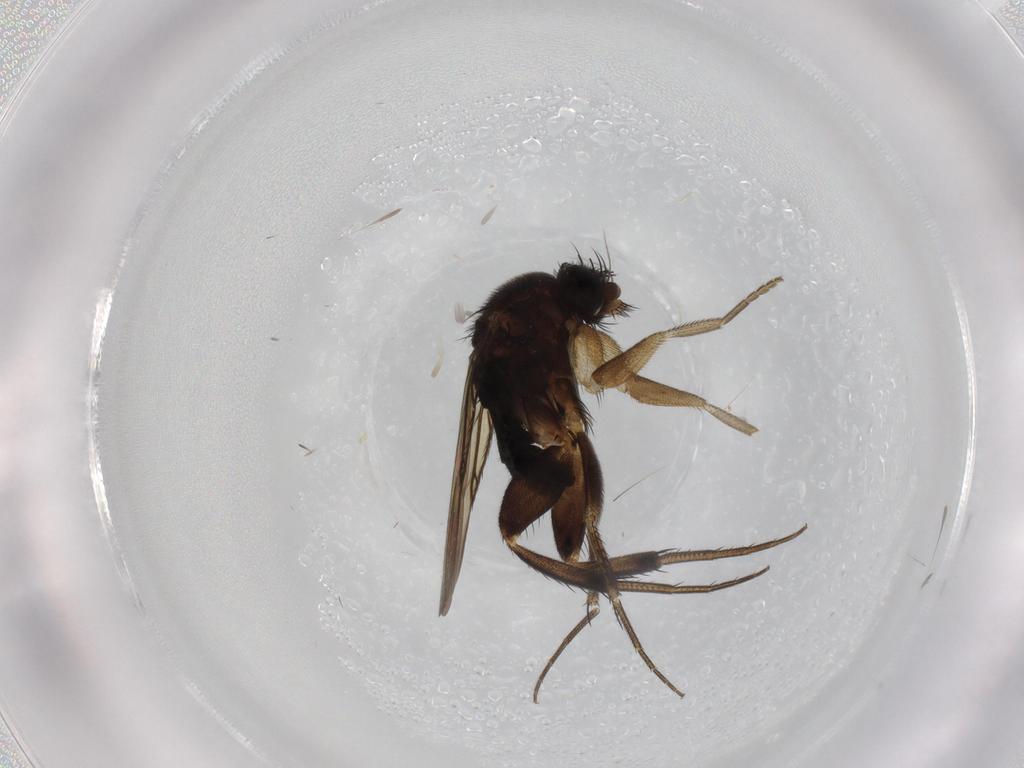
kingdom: Animalia
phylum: Arthropoda
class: Insecta
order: Diptera
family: Phoridae
